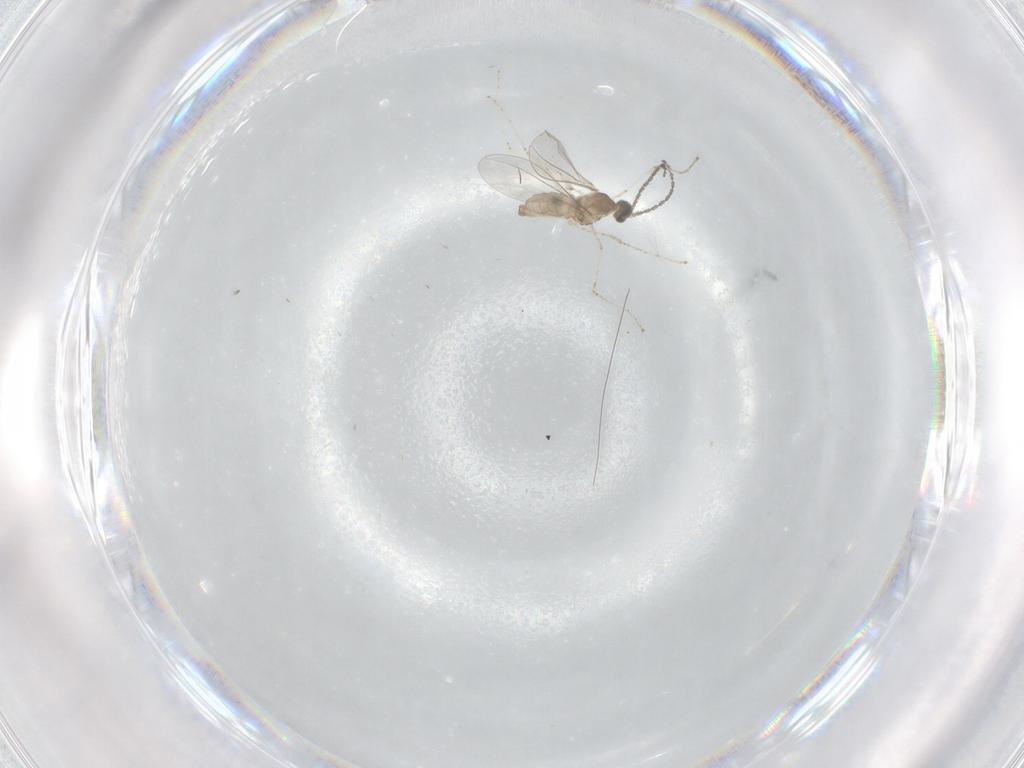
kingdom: Animalia
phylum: Arthropoda
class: Insecta
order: Diptera
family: Cecidomyiidae
